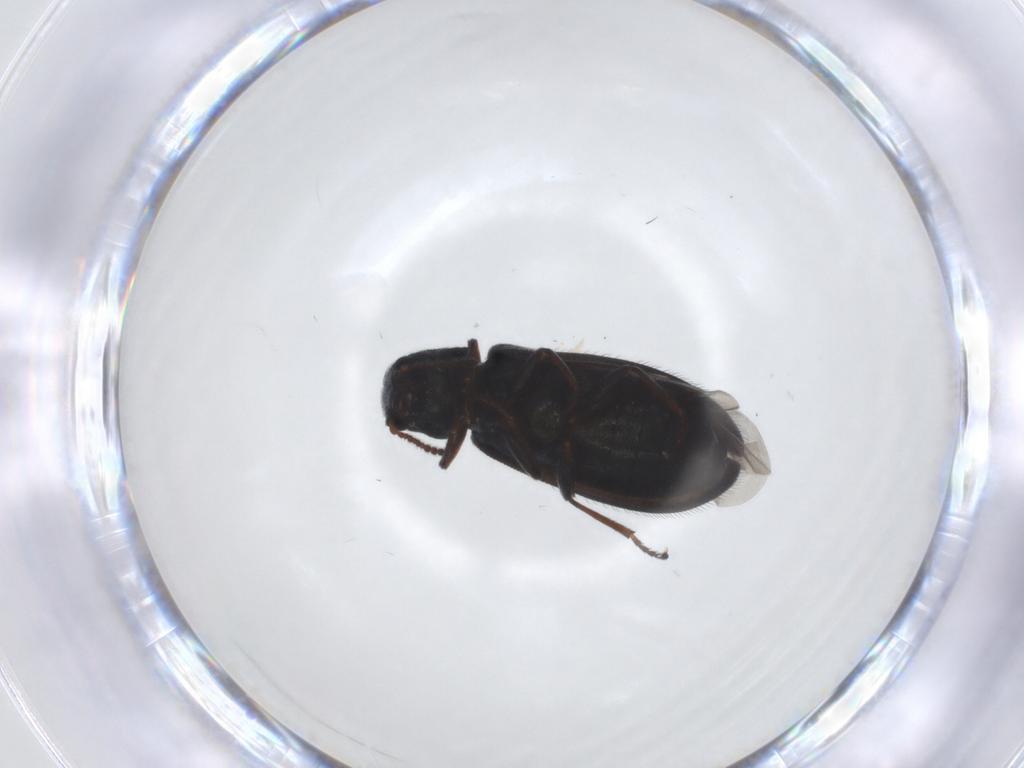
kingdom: Animalia
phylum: Arthropoda
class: Insecta
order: Coleoptera
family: Melyridae
